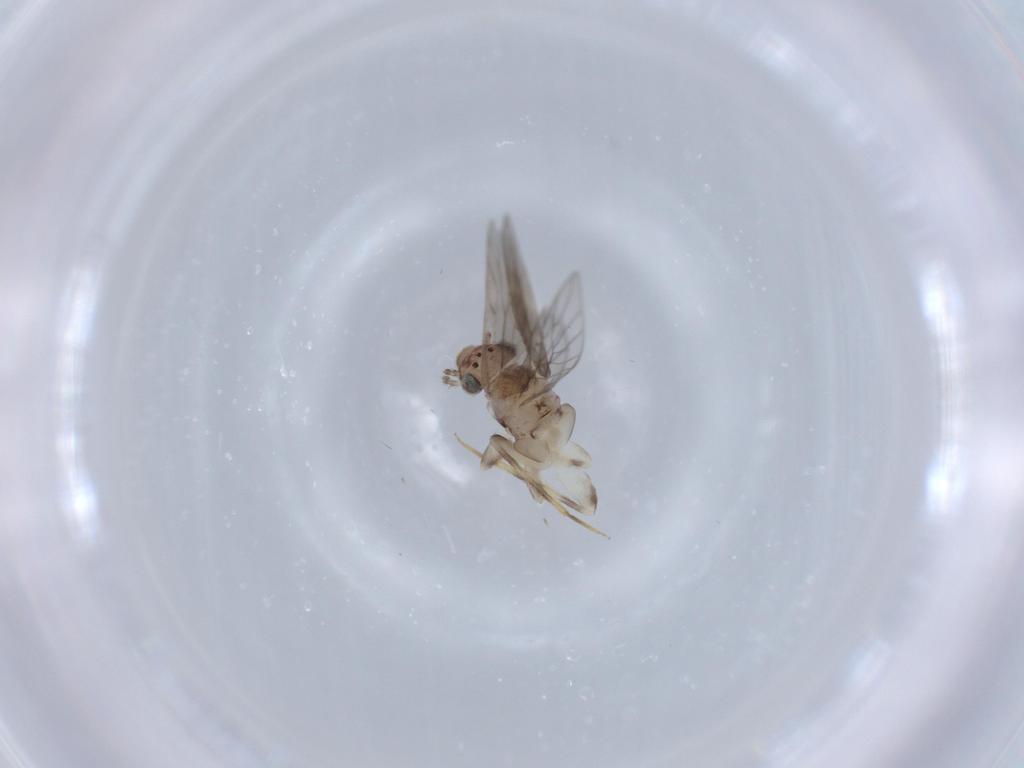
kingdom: Animalia
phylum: Arthropoda
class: Insecta
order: Psocodea
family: Lepidopsocidae
